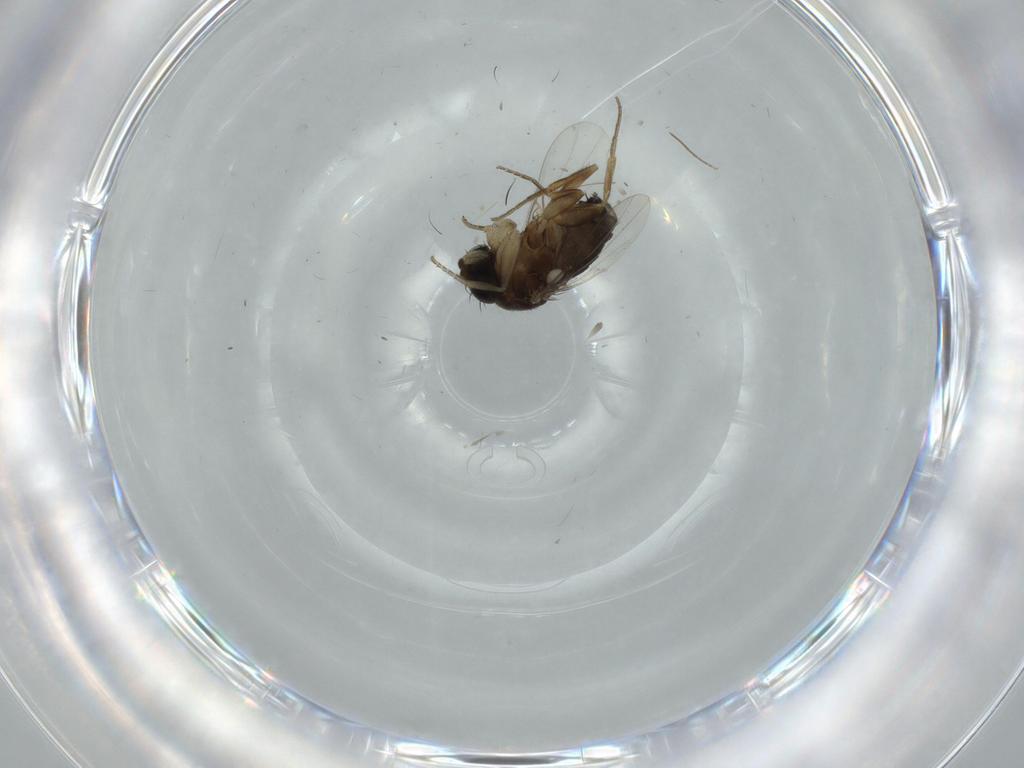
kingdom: Animalia
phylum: Arthropoda
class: Insecta
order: Diptera
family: Phoridae
